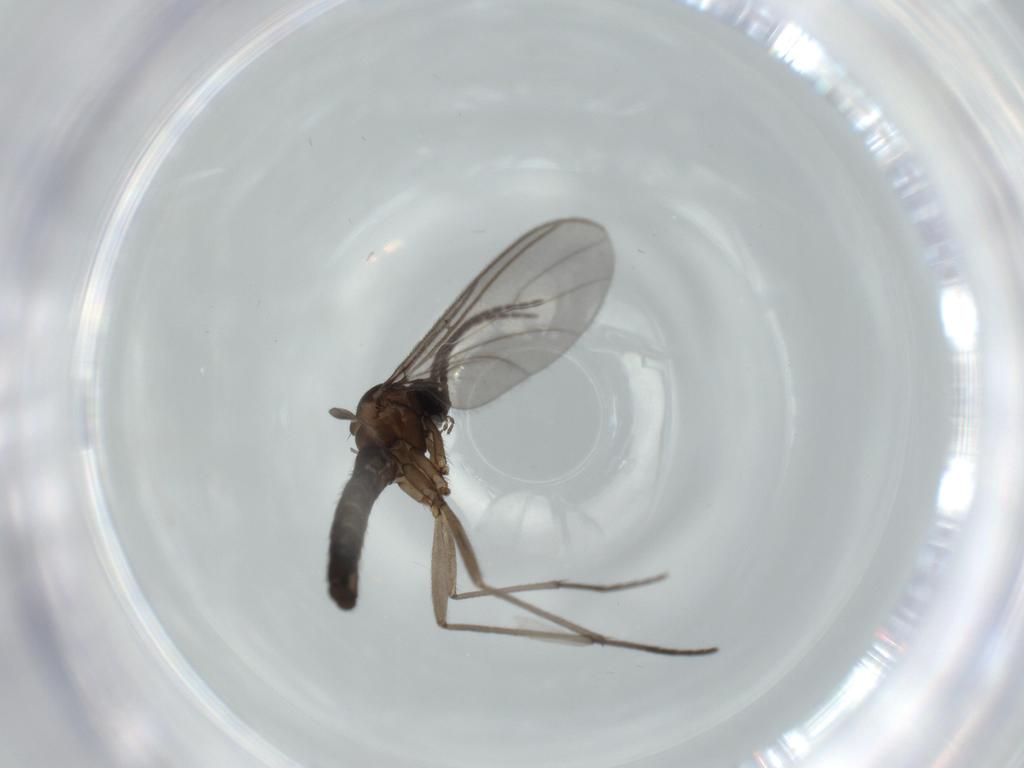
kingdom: Animalia
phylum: Arthropoda
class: Insecta
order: Diptera
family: Sciaridae
